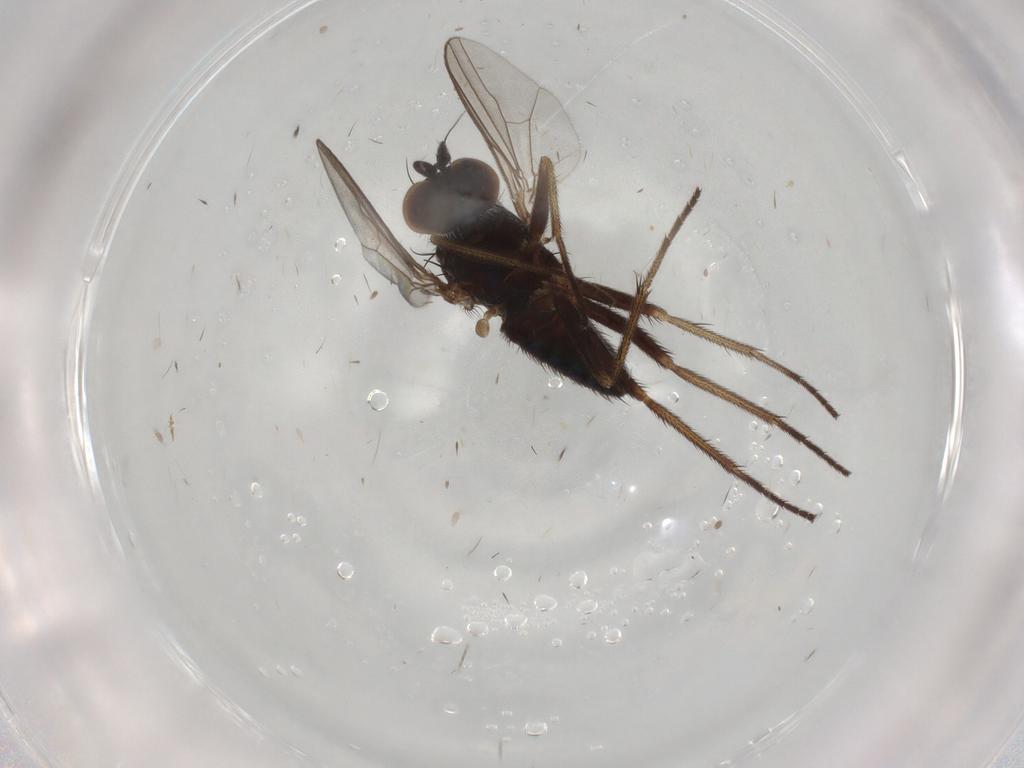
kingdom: Animalia
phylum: Arthropoda
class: Insecta
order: Diptera
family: Dolichopodidae
